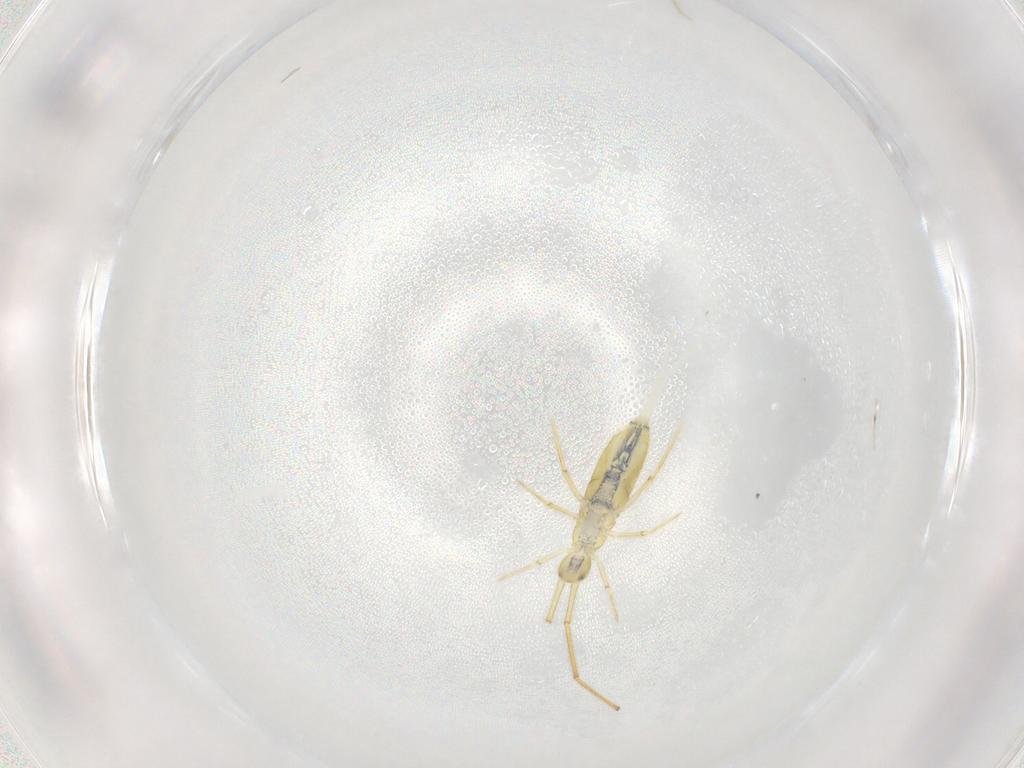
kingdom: Animalia
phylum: Arthropoda
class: Collembola
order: Entomobryomorpha
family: Paronellidae
